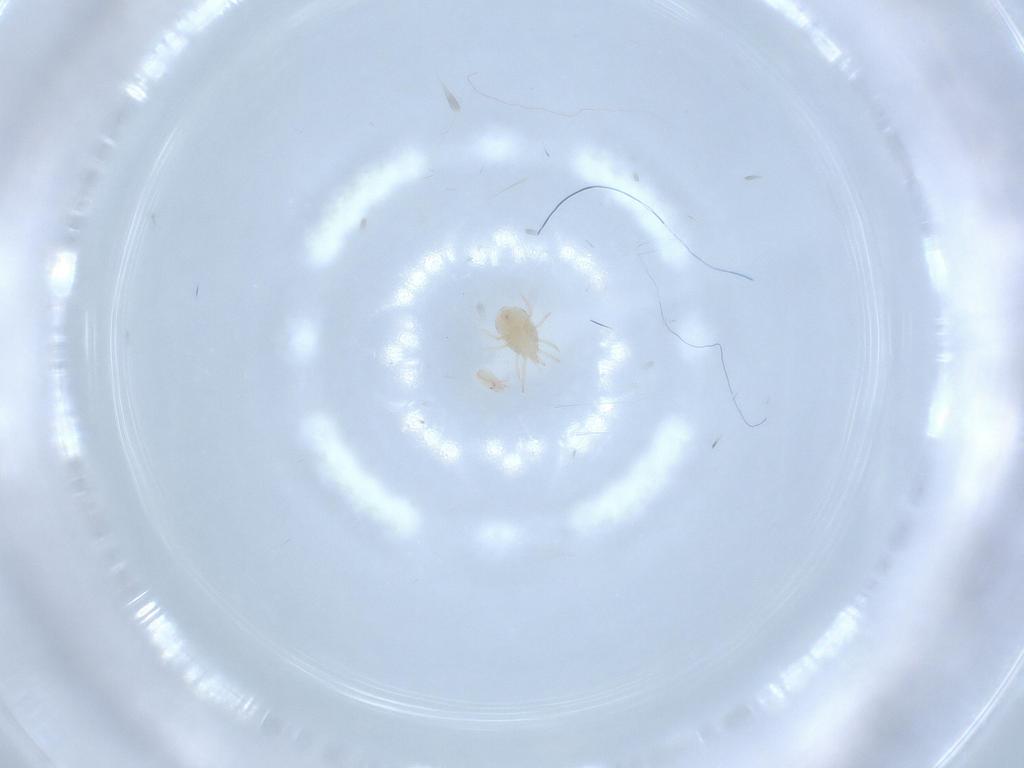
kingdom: Animalia
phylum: Arthropoda
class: Arachnida
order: Mesostigmata
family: Phytoseiidae
